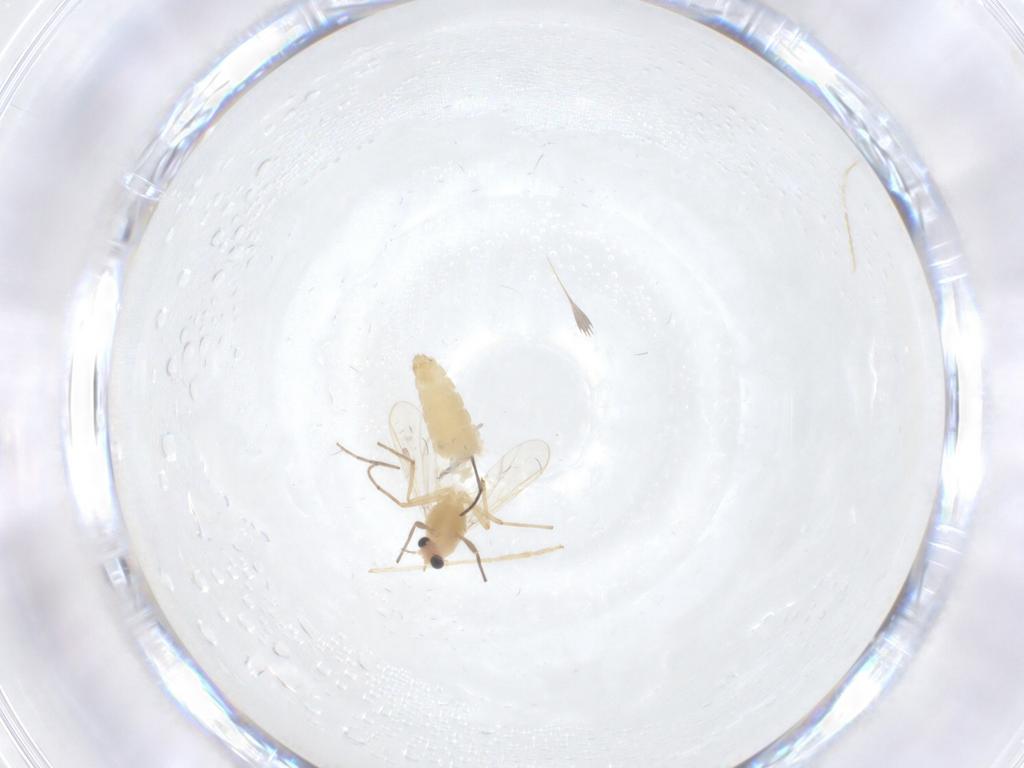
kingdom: Animalia
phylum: Arthropoda
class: Insecta
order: Diptera
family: Chironomidae
